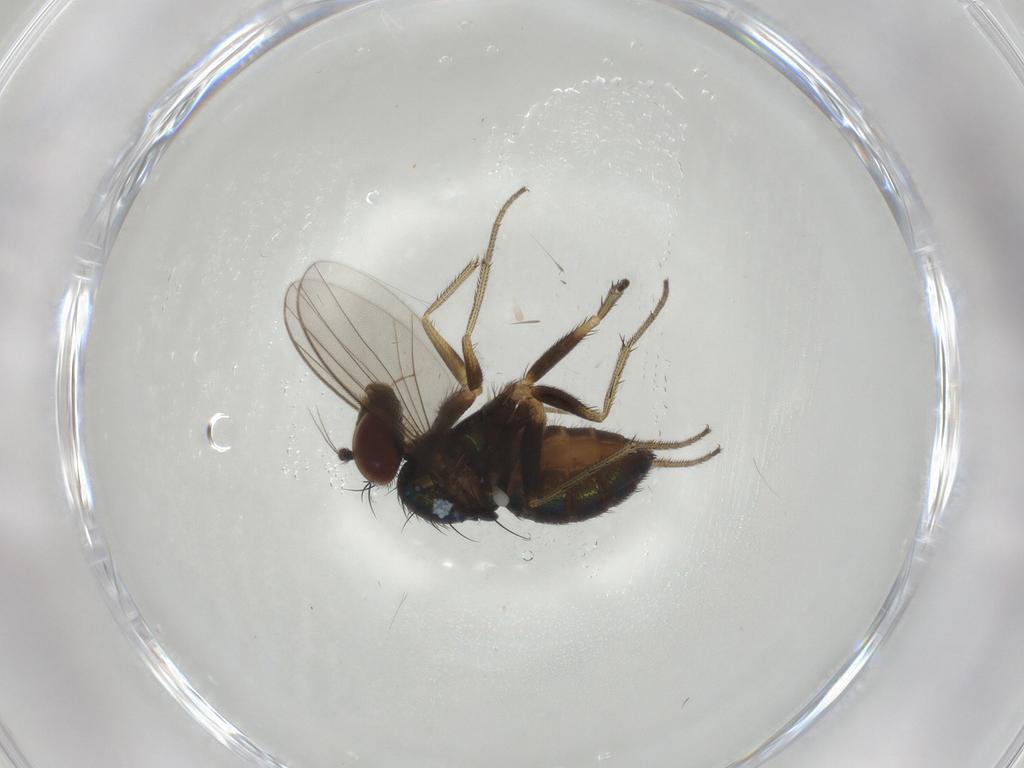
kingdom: Animalia
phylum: Arthropoda
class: Insecta
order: Diptera
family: Dolichopodidae
